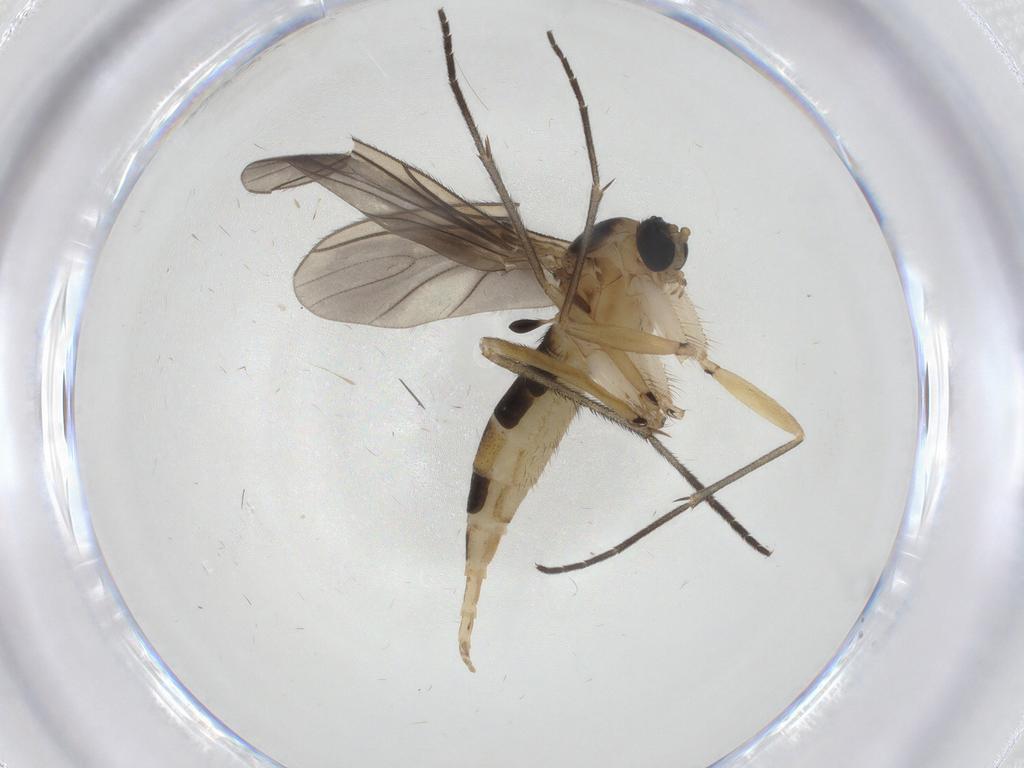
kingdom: Animalia
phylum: Arthropoda
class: Insecta
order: Diptera
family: Sciaridae
